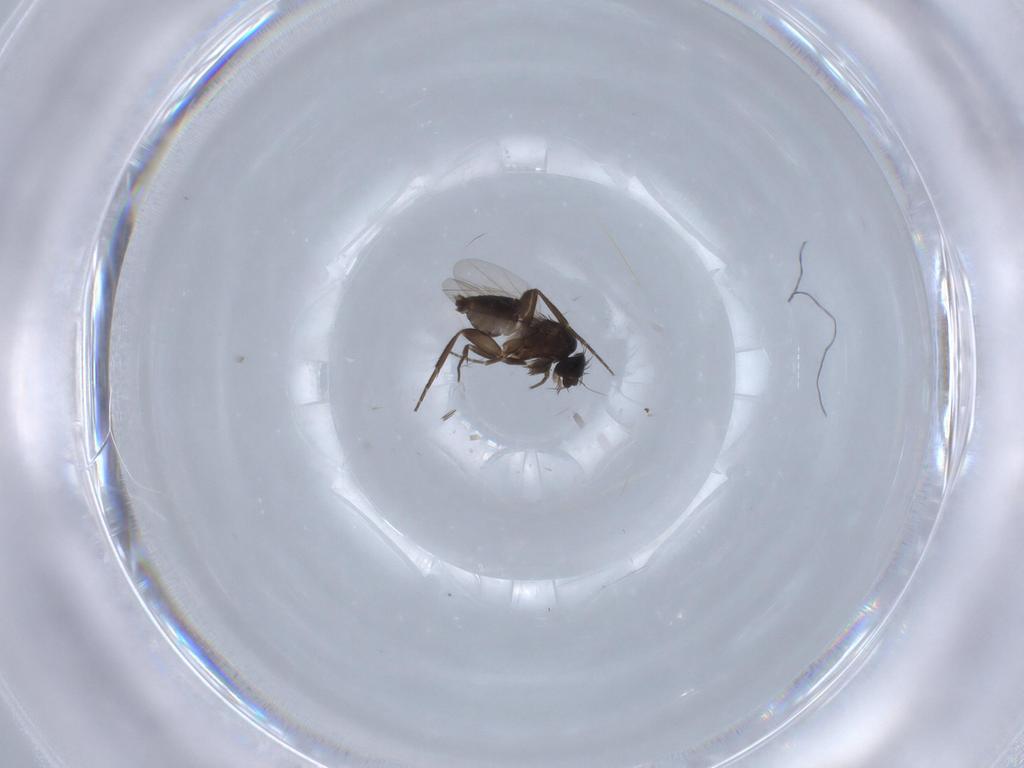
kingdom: Animalia
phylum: Arthropoda
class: Insecta
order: Diptera
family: Phoridae
